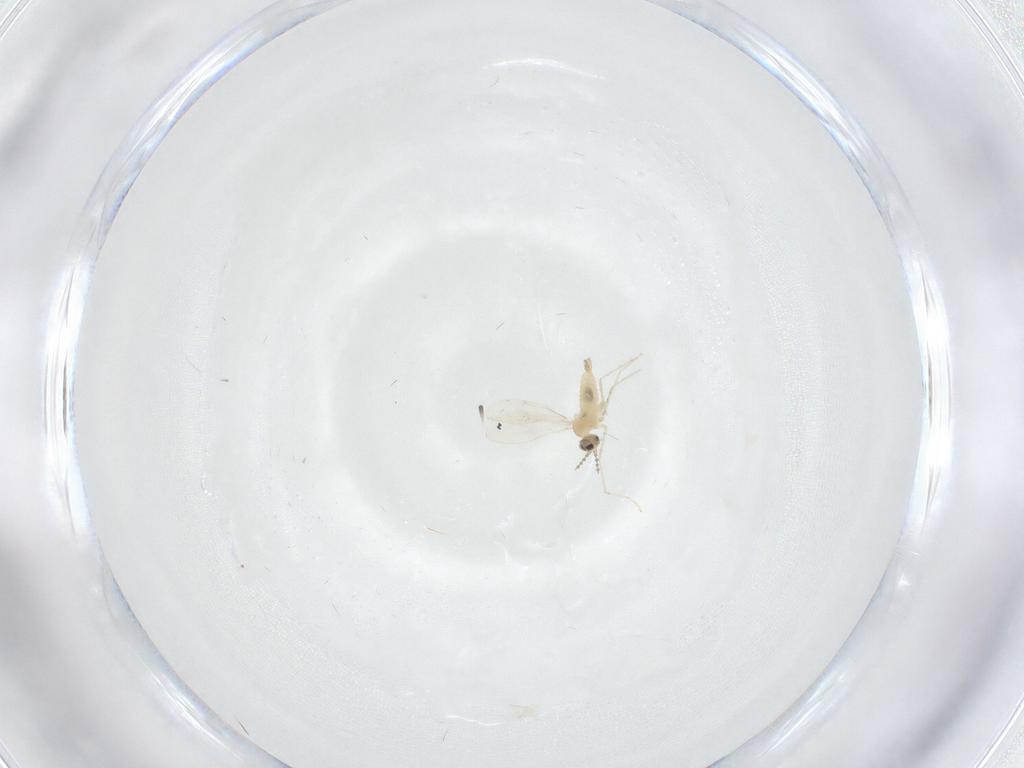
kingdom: Animalia
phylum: Arthropoda
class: Insecta
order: Diptera
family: Cecidomyiidae
